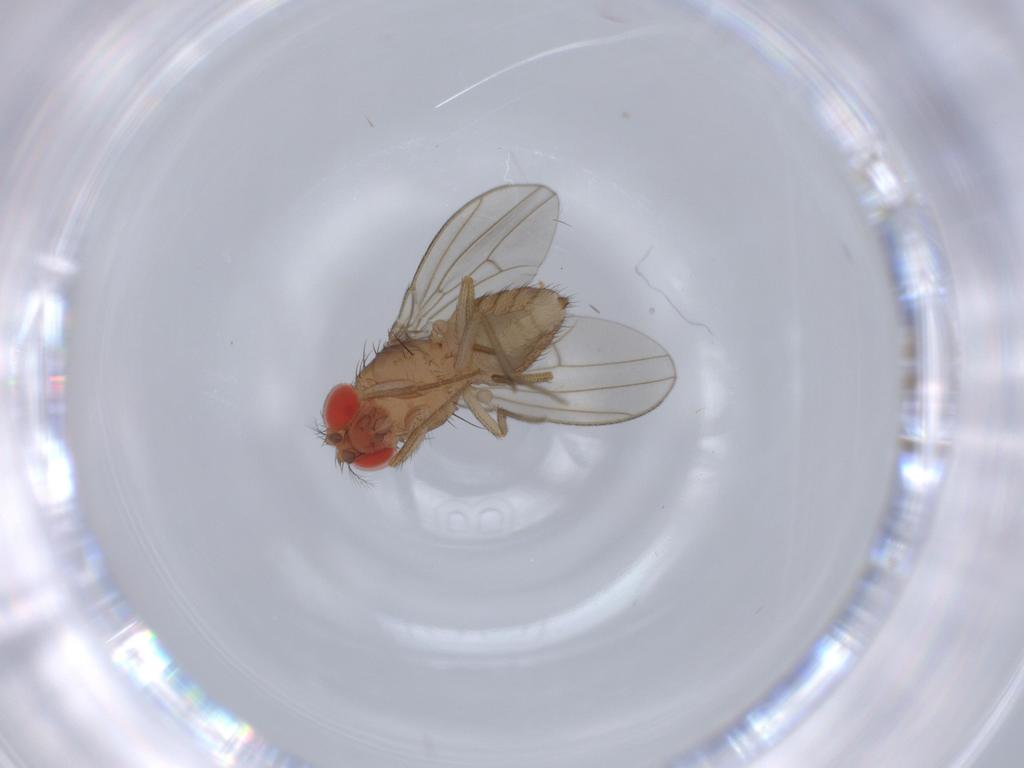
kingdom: Animalia
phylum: Arthropoda
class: Insecta
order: Diptera
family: Drosophilidae
